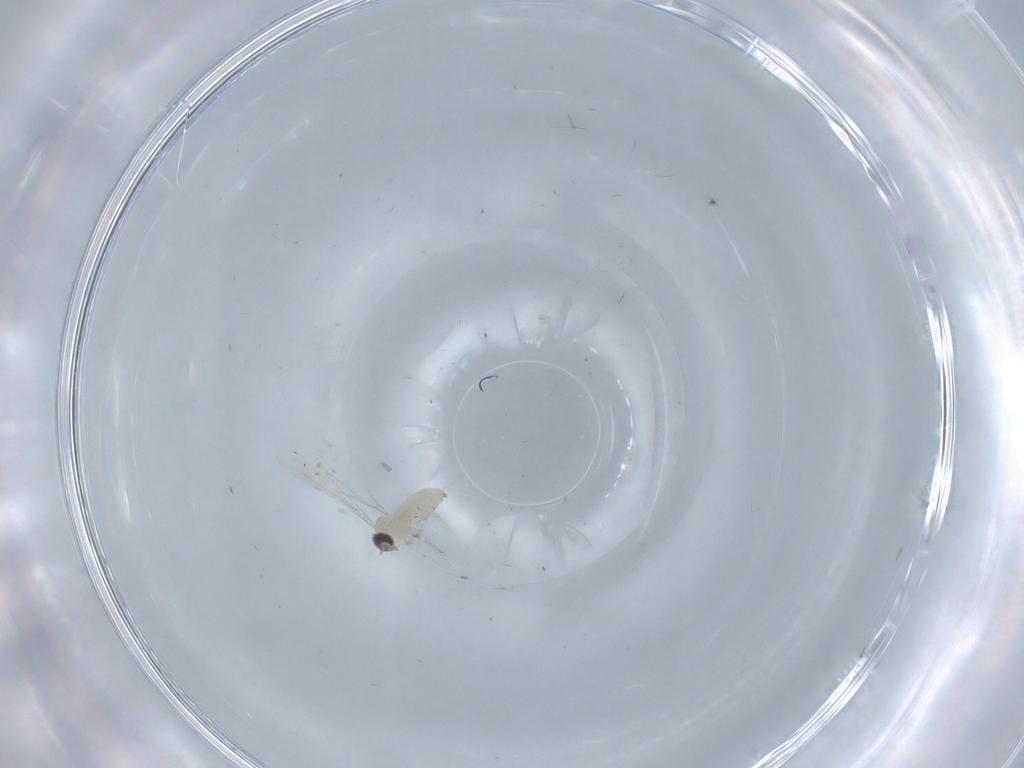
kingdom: Animalia
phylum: Arthropoda
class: Insecta
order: Diptera
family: Cecidomyiidae
